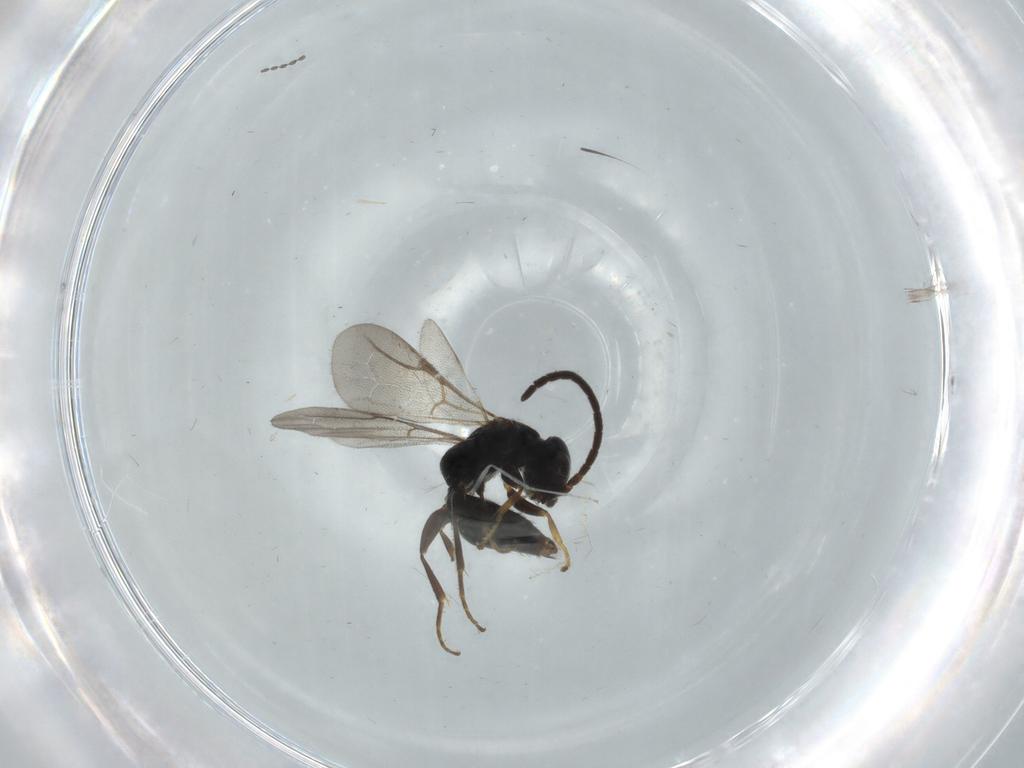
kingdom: Animalia
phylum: Arthropoda
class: Insecta
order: Hymenoptera
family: Bethylidae
